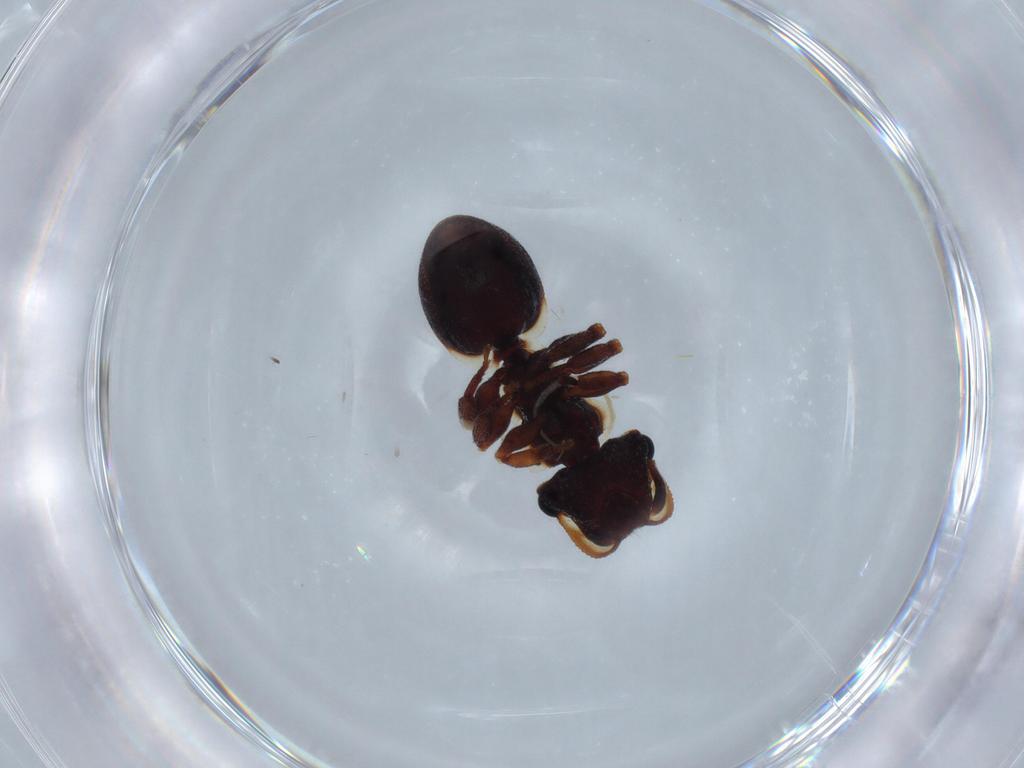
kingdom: Animalia
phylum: Arthropoda
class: Insecta
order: Hymenoptera
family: Formicidae
